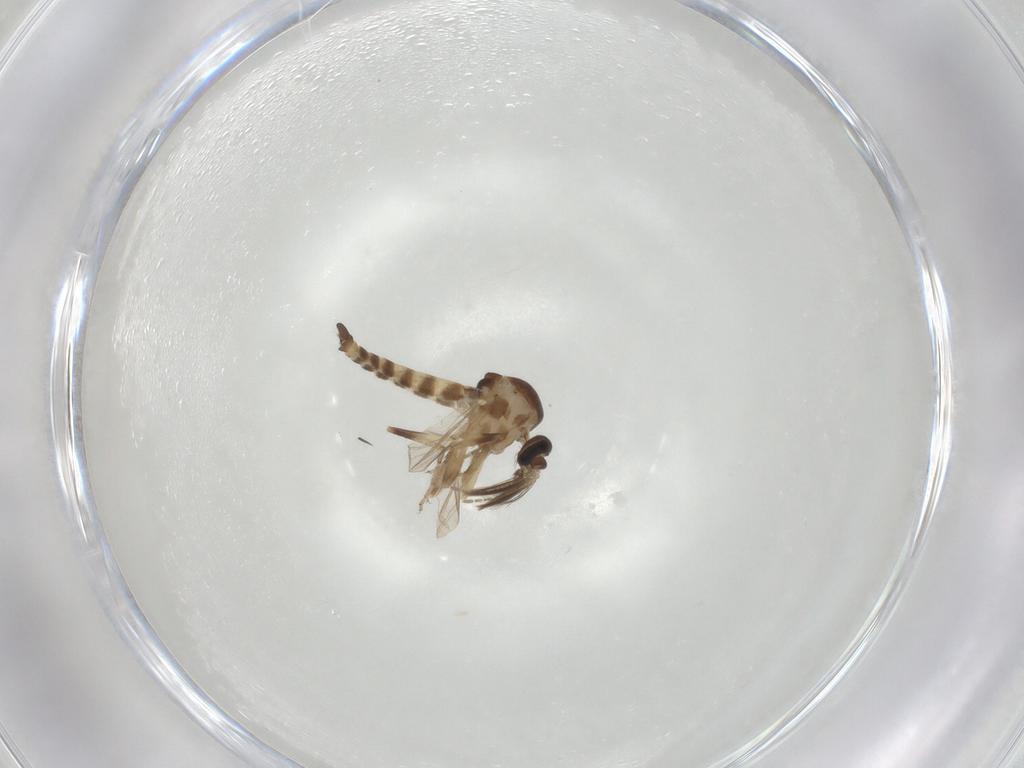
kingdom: Animalia
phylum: Arthropoda
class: Insecta
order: Diptera
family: Ceratopogonidae
